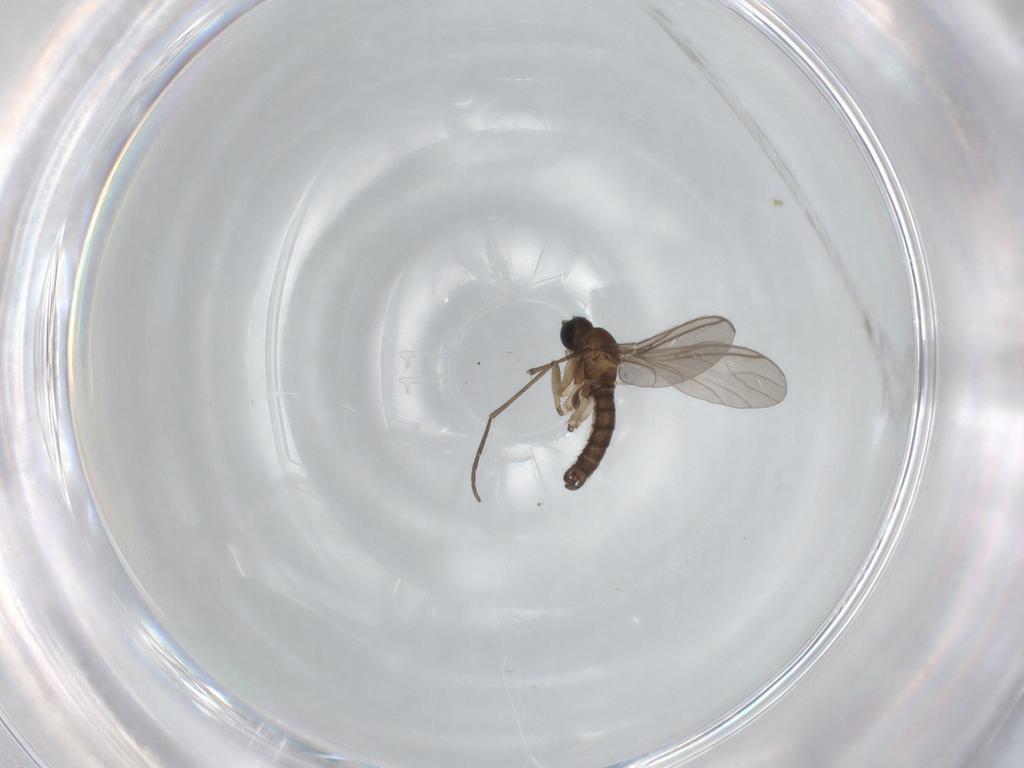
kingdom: Animalia
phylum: Arthropoda
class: Insecta
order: Diptera
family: Sciaridae
